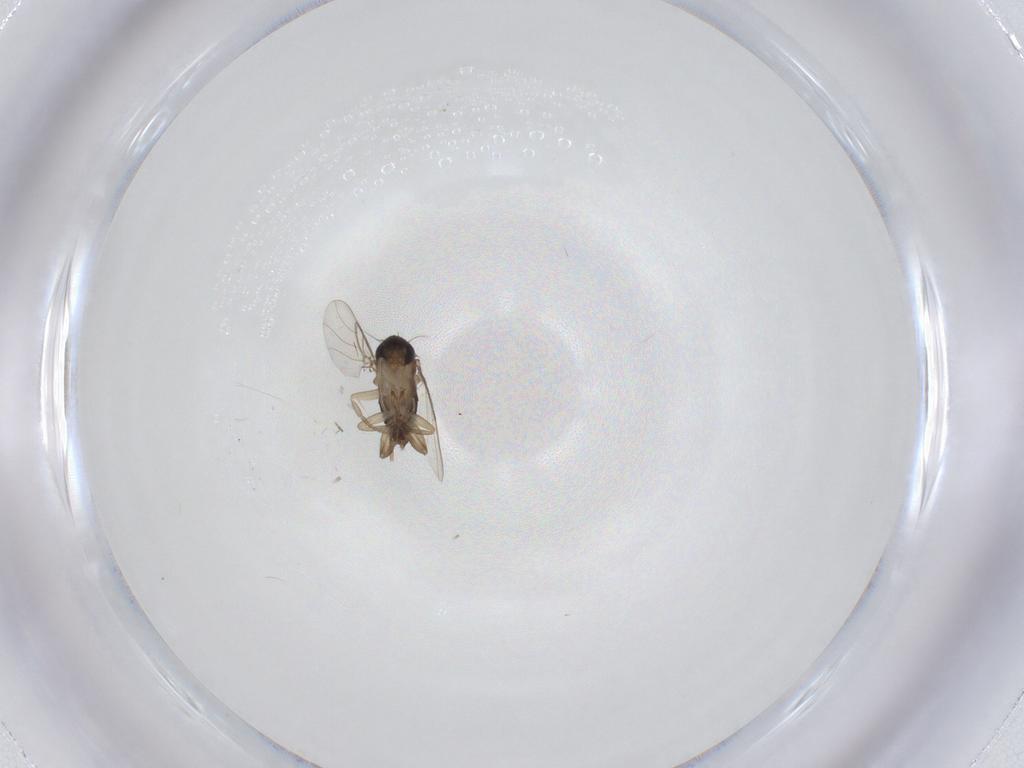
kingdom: Animalia
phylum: Arthropoda
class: Insecta
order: Diptera
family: Phoridae
